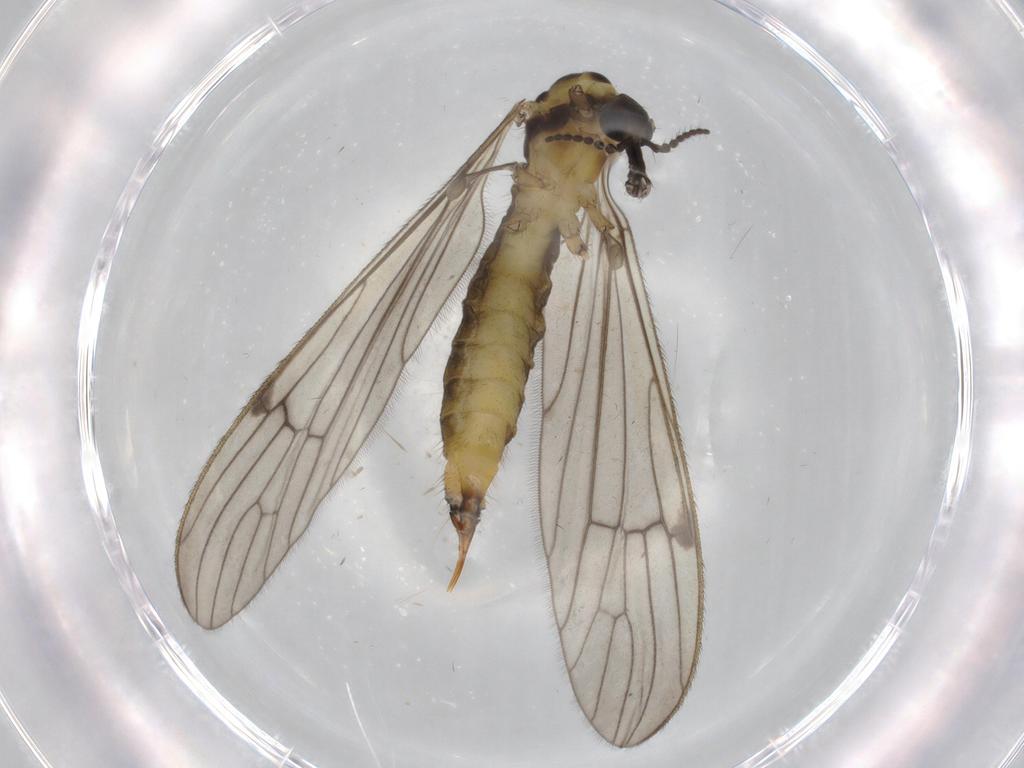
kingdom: Animalia
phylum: Arthropoda
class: Insecta
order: Diptera
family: Limoniidae
